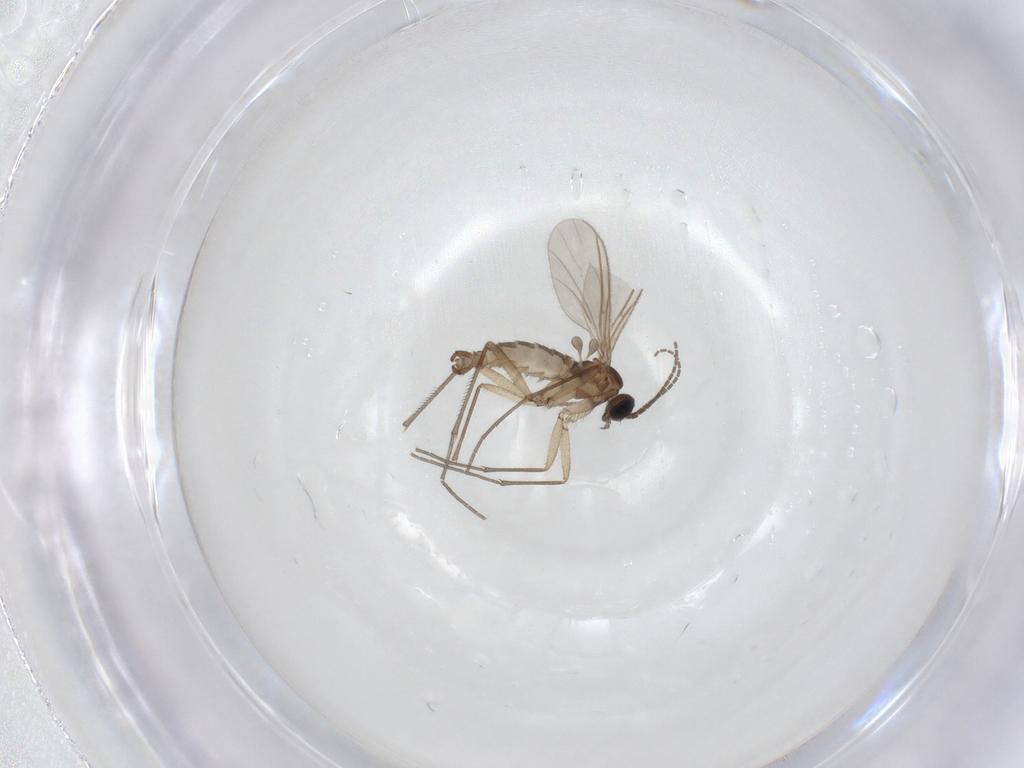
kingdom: Animalia
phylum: Arthropoda
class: Insecta
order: Diptera
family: Psychodidae
